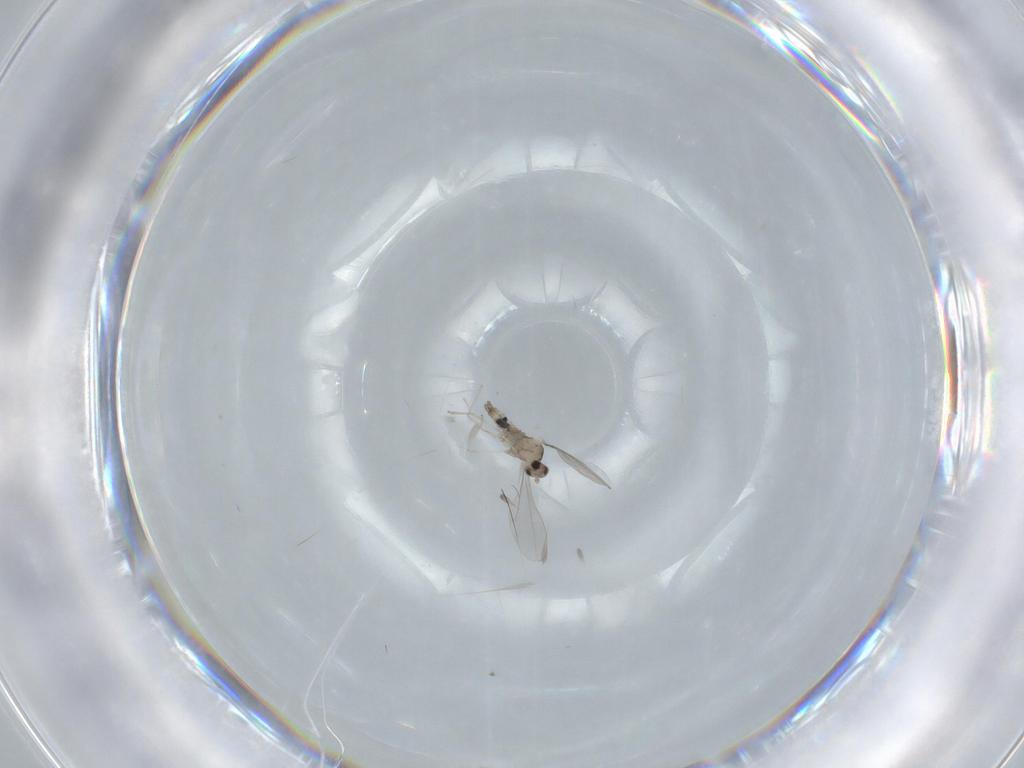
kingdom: Animalia
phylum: Arthropoda
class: Insecta
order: Diptera
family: Cecidomyiidae
